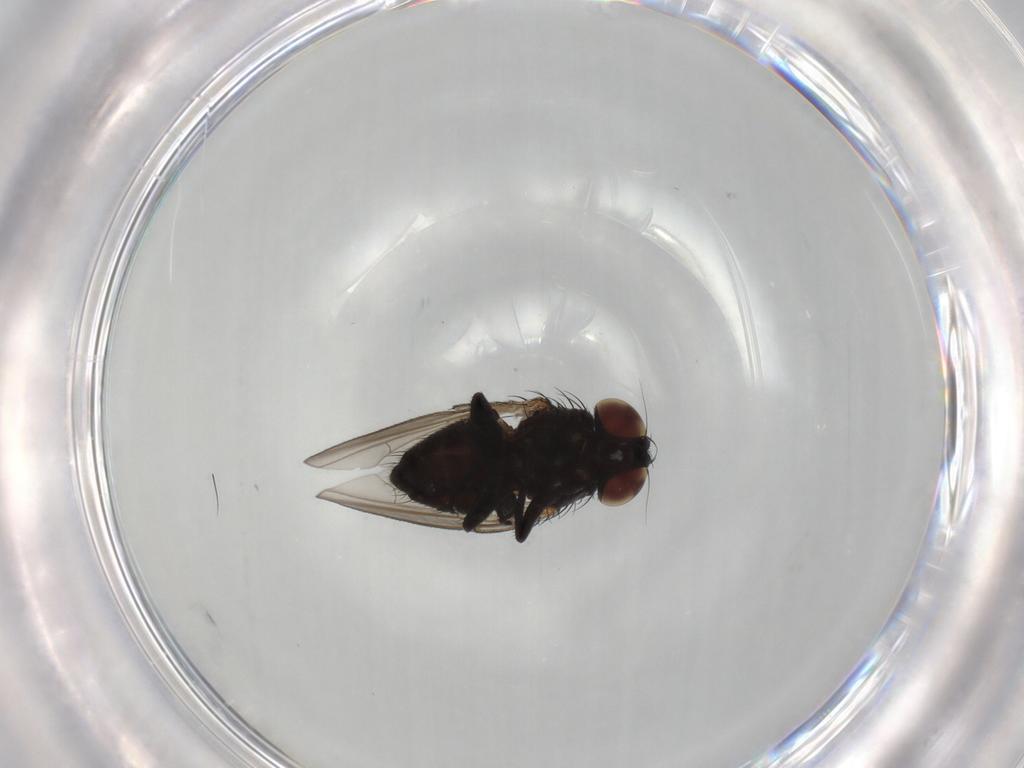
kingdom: Animalia
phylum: Arthropoda
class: Insecta
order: Diptera
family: Milichiidae
